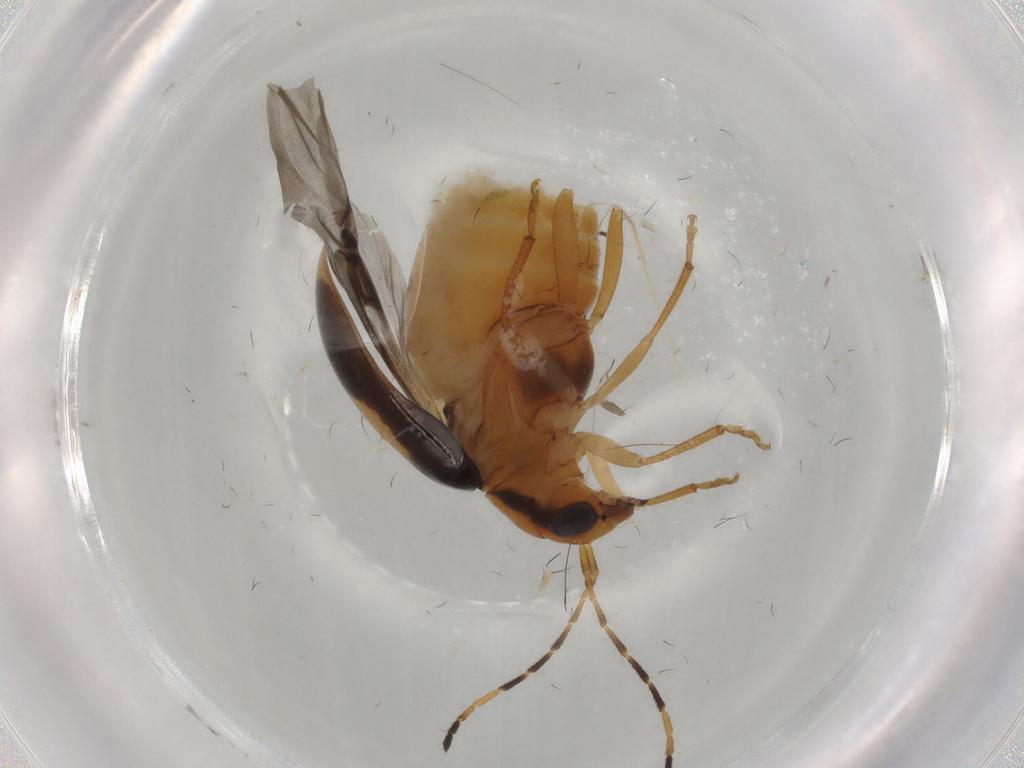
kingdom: Animalia
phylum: Arthropoda
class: Insecta
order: Coleoptera
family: Chrysomelidae
